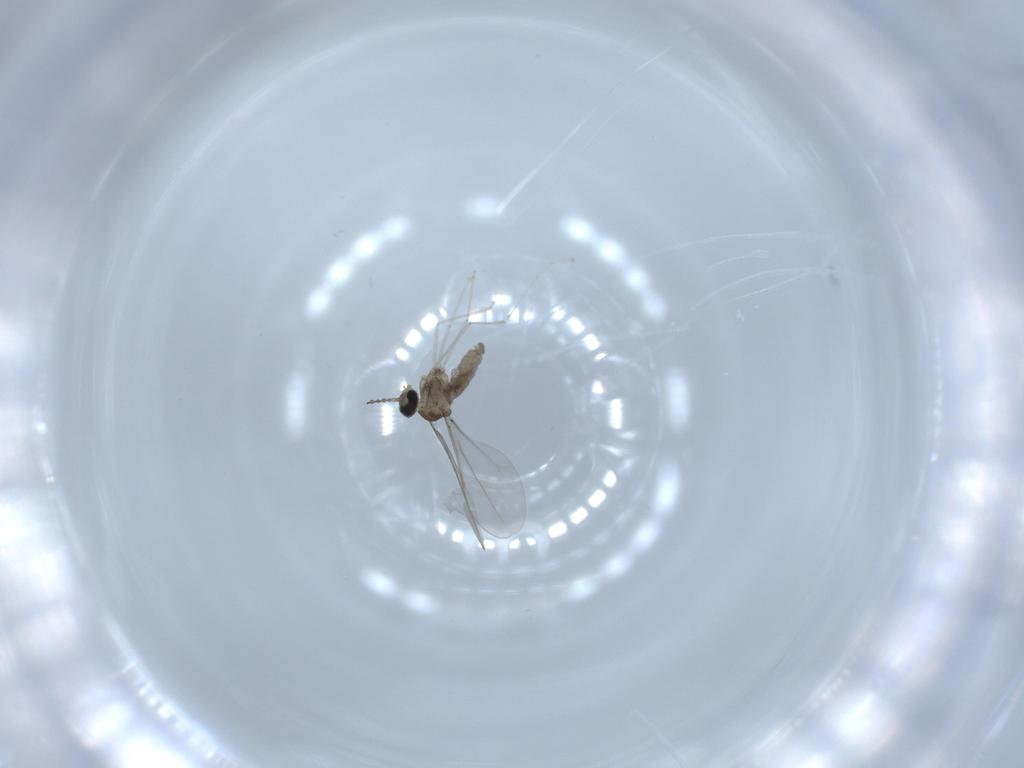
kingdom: Animalia
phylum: Arthropoda
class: Insecta
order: Diptera
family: Cecidomyiidae
